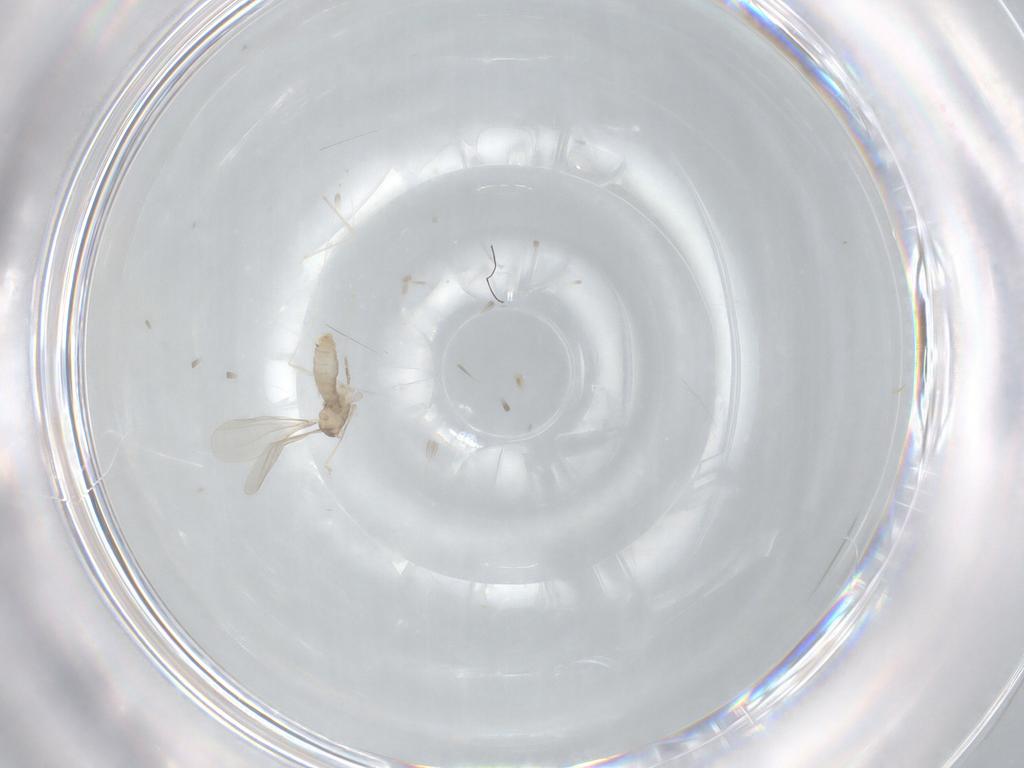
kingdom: Animalia
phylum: Arthropoda
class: Insecta
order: Diptera
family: Cecidomyiidae
